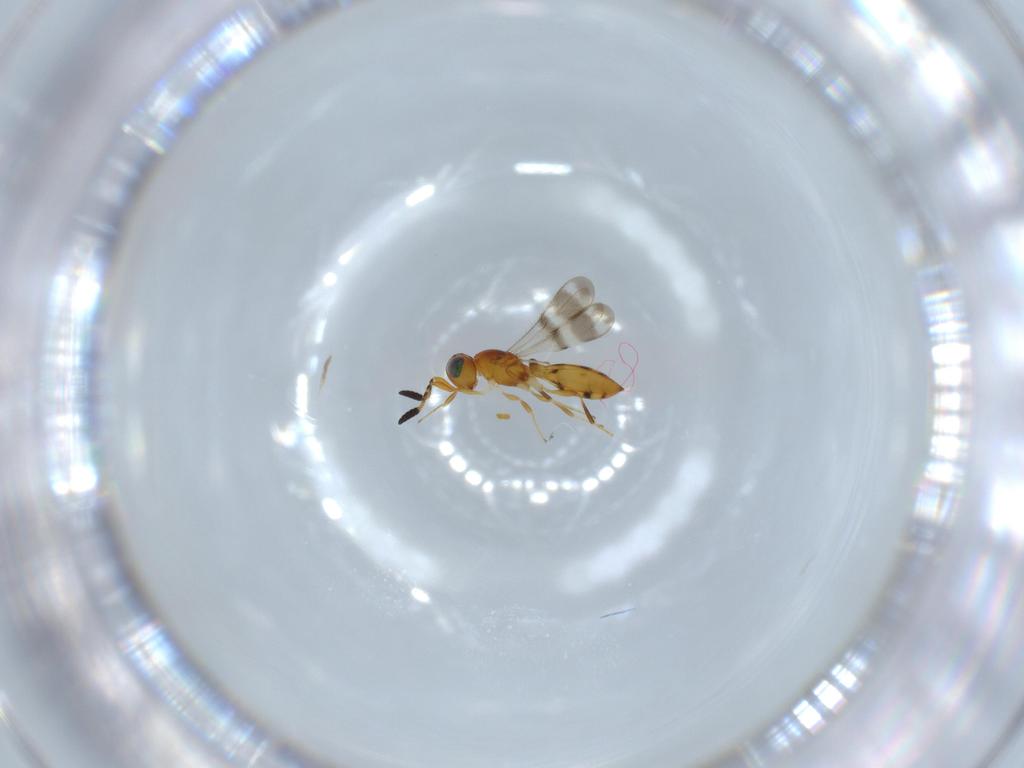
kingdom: Animalia
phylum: Arthropoda
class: Insecta
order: Hymenoptera
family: Scelionidae
